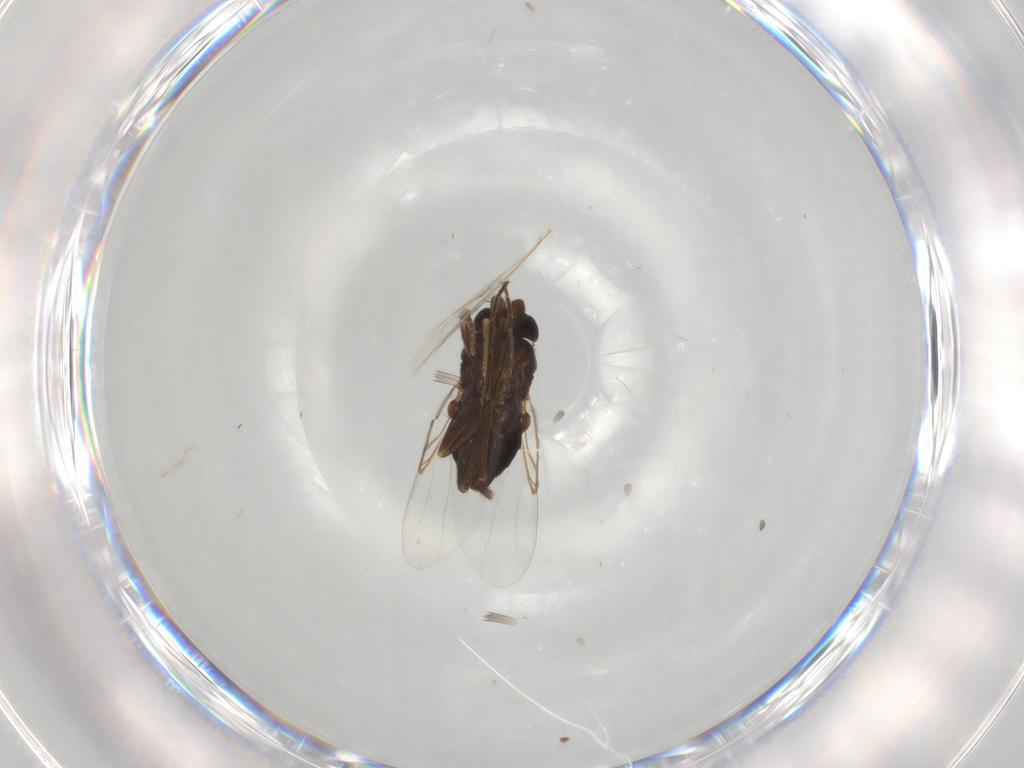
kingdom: Animalia
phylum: Arthropoda
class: Insecta
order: Diptera
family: Phoridae
